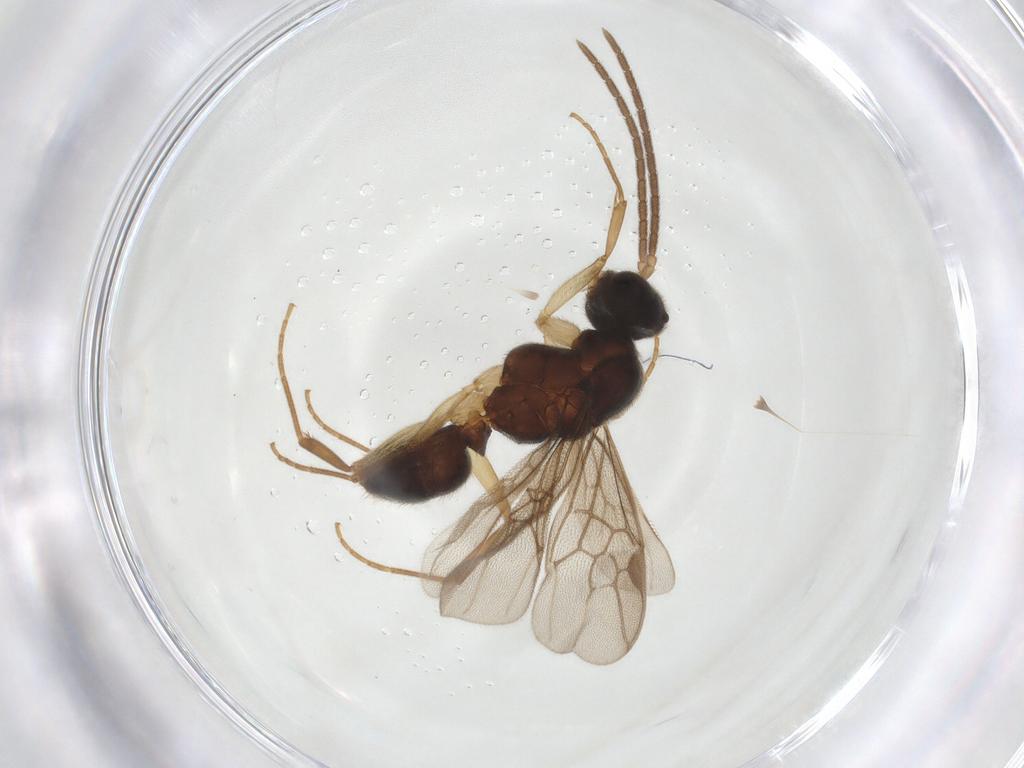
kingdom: Animalia
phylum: Arthropoda
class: Insecta
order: Hymenoptera
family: Formicidae
